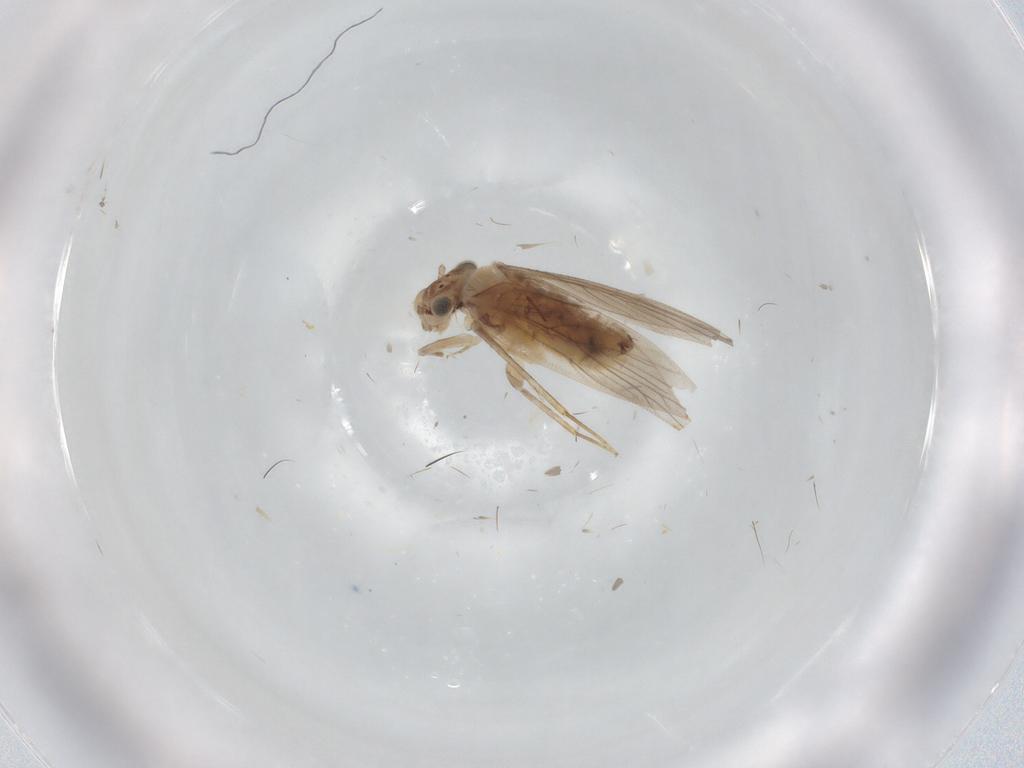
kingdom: Animalia
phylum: Arthropoda
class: Insecta
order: Psocodea
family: Lepidopsocidae
